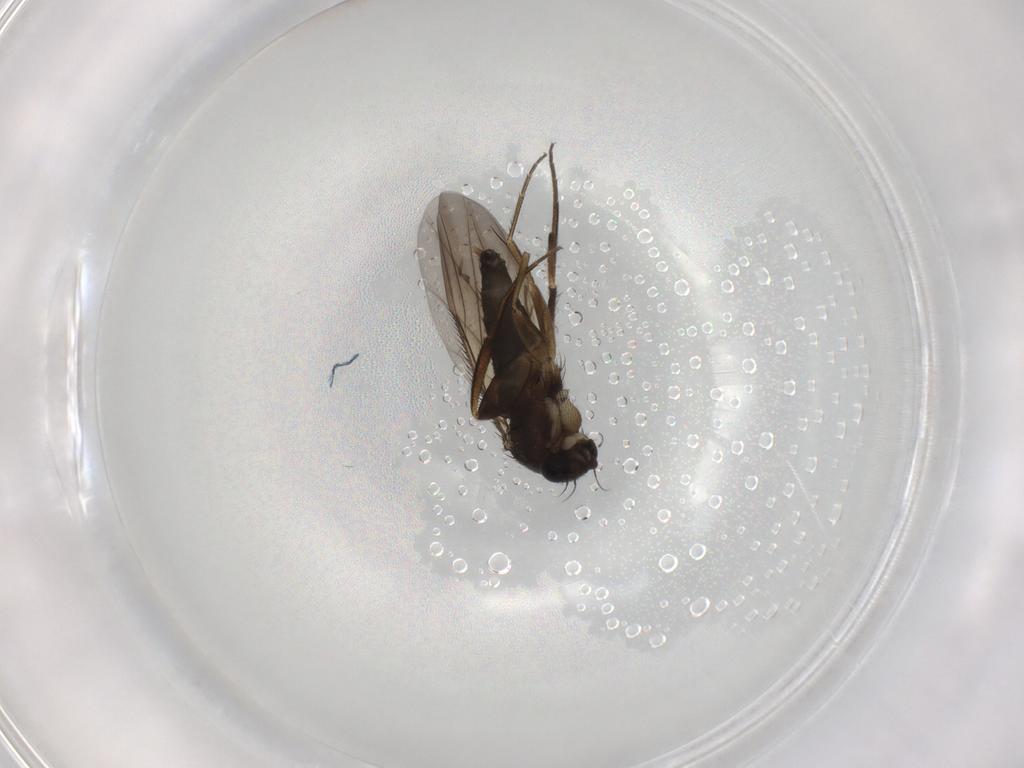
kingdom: Animalia
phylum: Arthropoda
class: Insecta
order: Diptera
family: Phoridae
